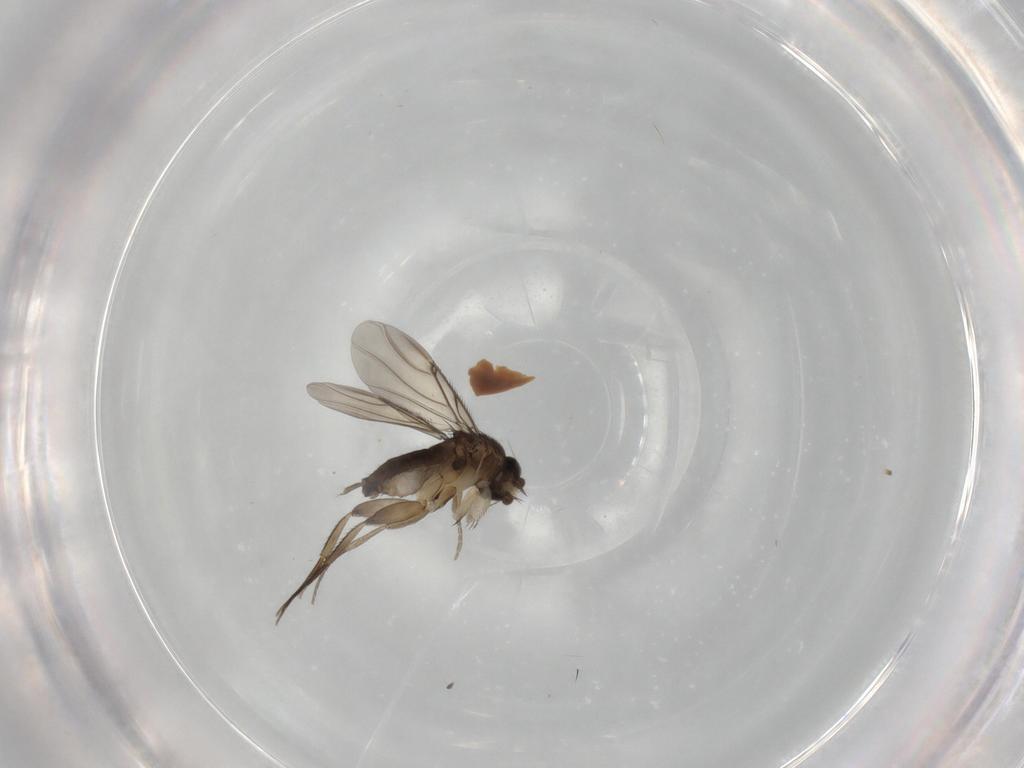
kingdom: Animalia
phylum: Arthropoda
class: Insecta
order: Diptera
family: Phoridae
